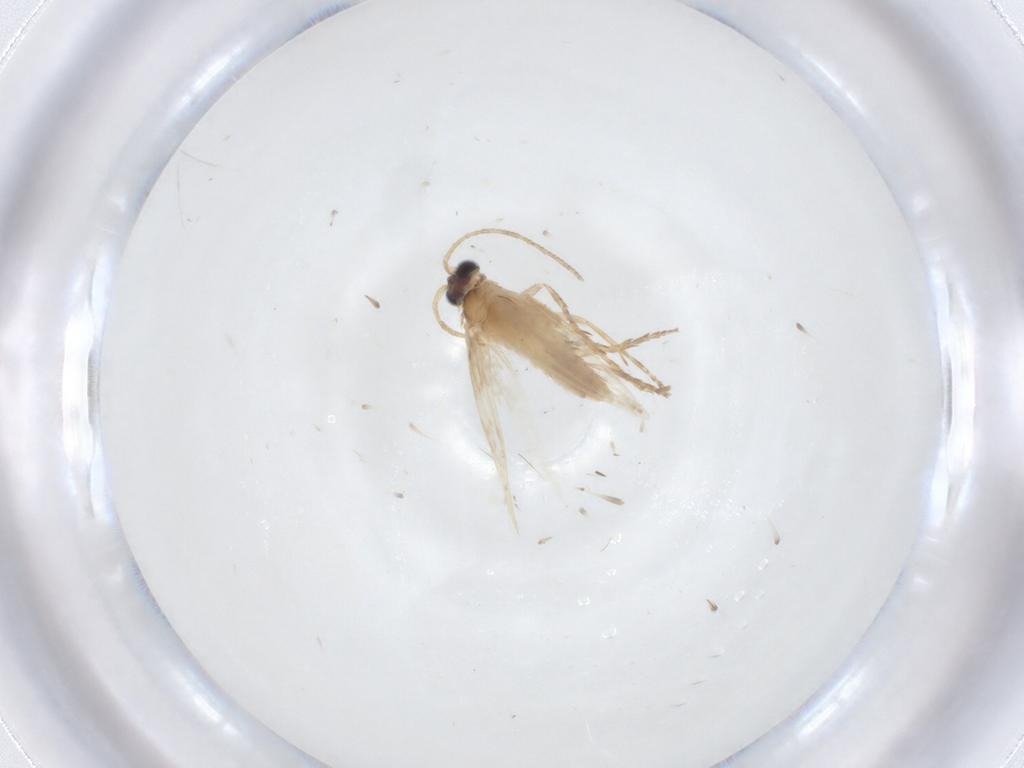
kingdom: Animalia
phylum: Arthropoda
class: Insecta
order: Lepidoptera
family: Nepticulidae
